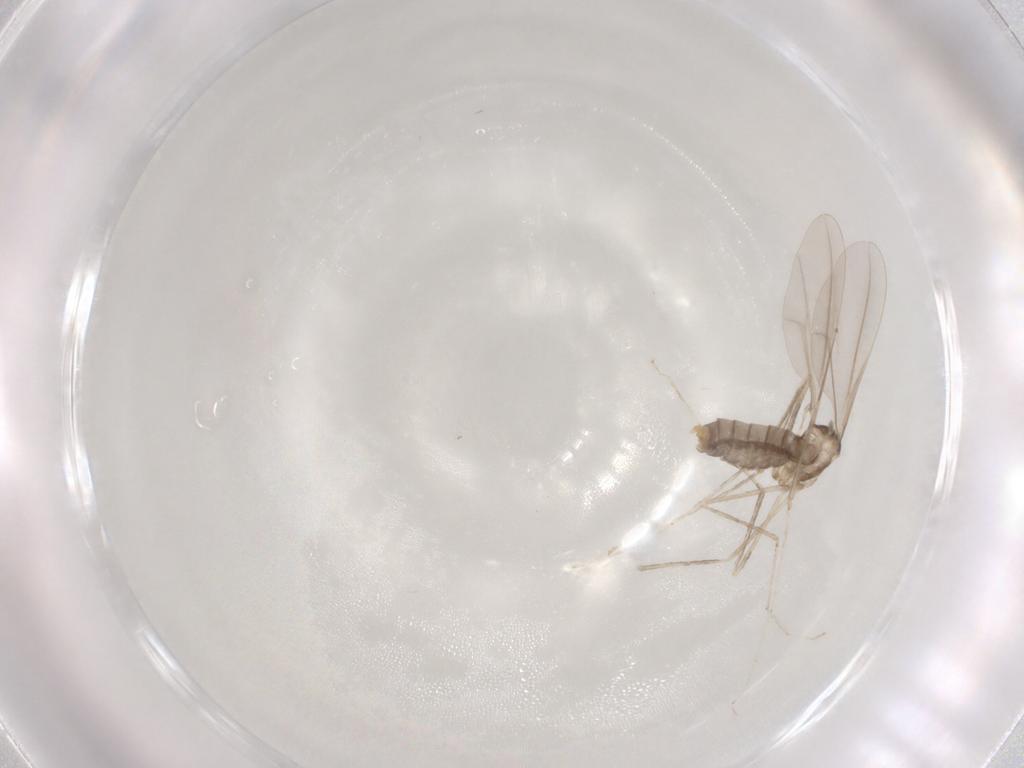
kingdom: Animalia
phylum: Arthropoda
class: Insecta
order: Diptera
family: Cecidomyiidae
